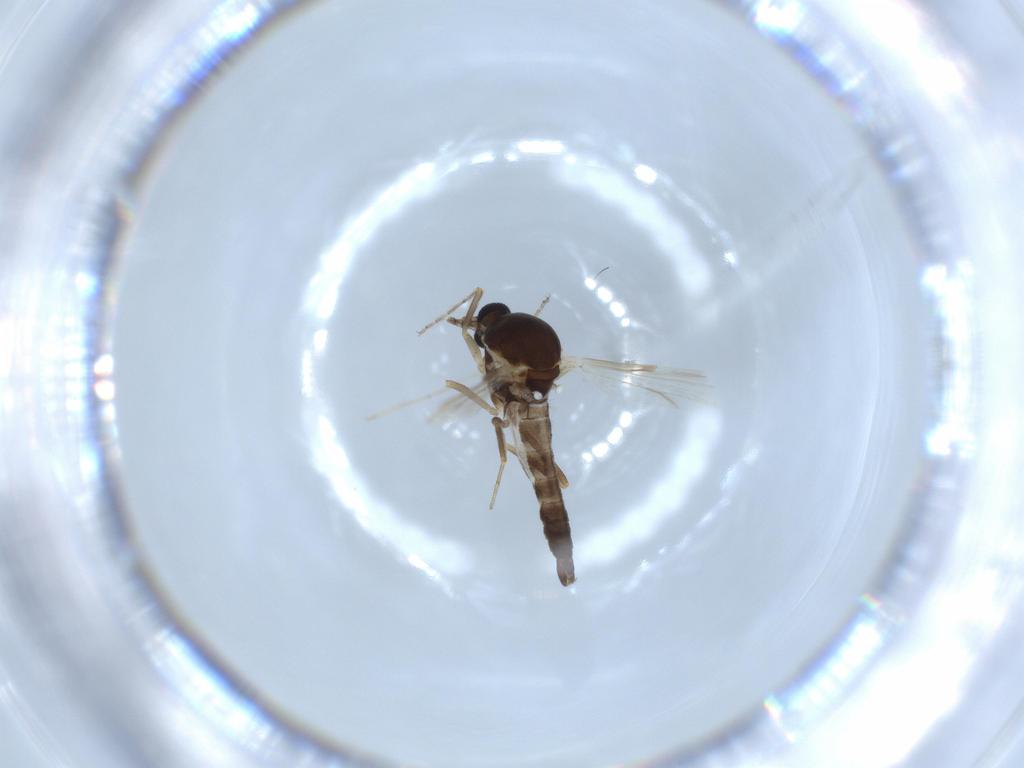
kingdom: Animalia
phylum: Arthropoda
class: Insecta
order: Diptera
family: Ceratopogonidae
